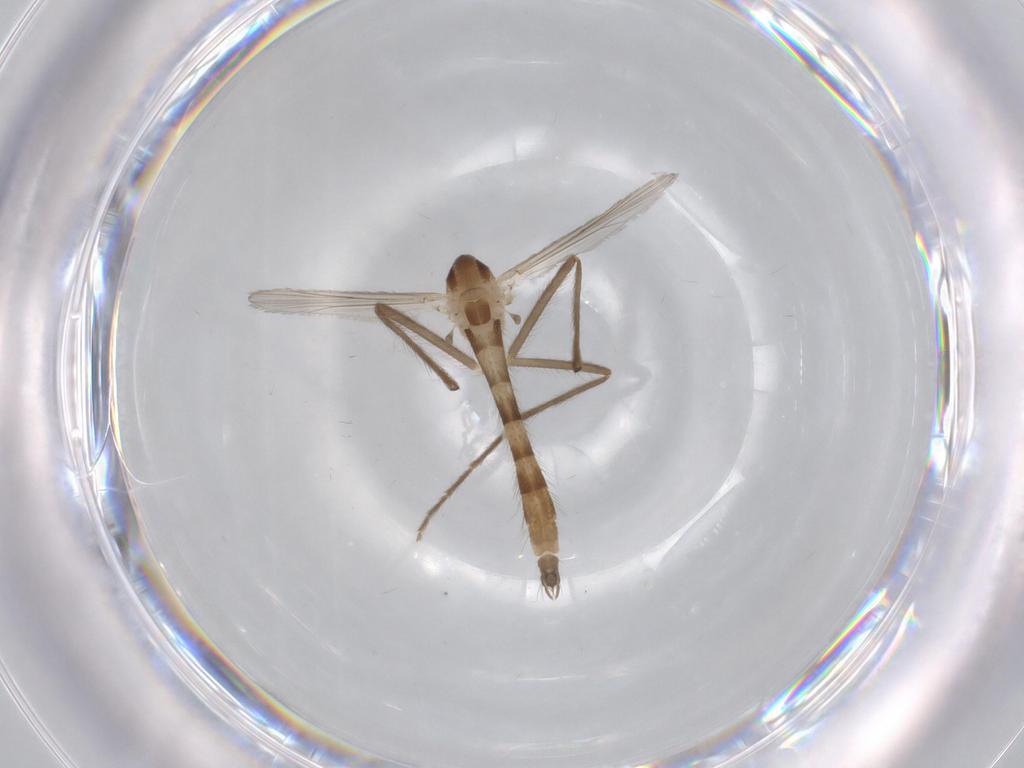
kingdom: Animalia
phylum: Arthropoda
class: Insecta
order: Diptera
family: Chironomidae
